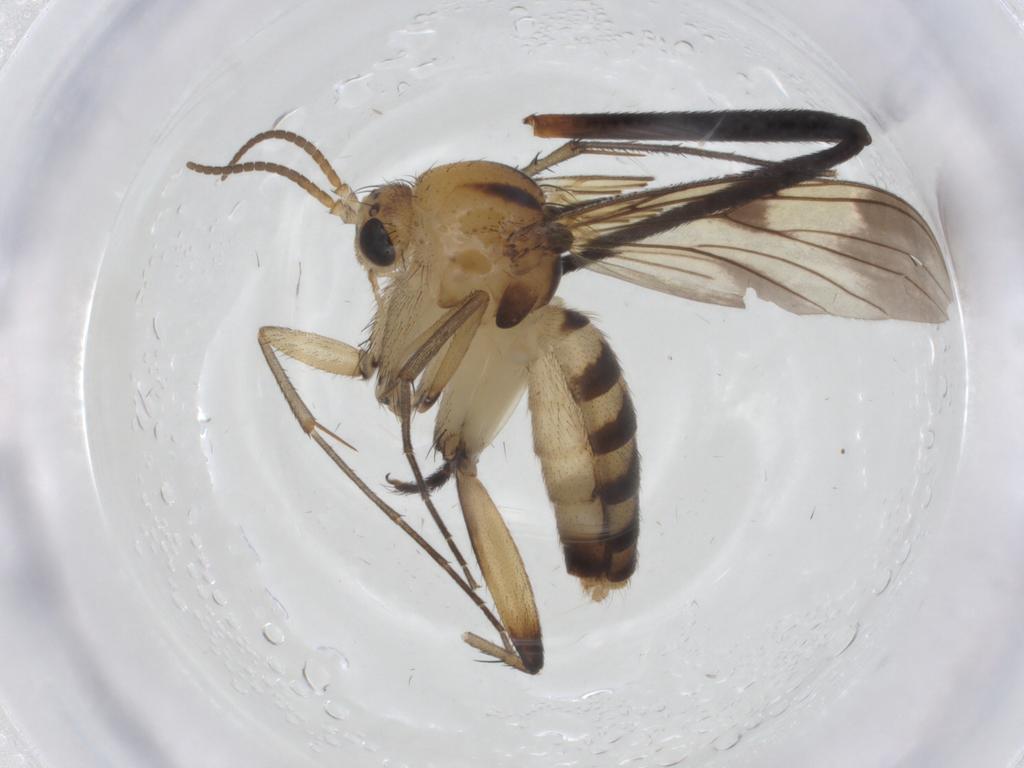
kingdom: Animalia
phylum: Arthropoda
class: Insecta
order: Diptera
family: Mycetophilidae
